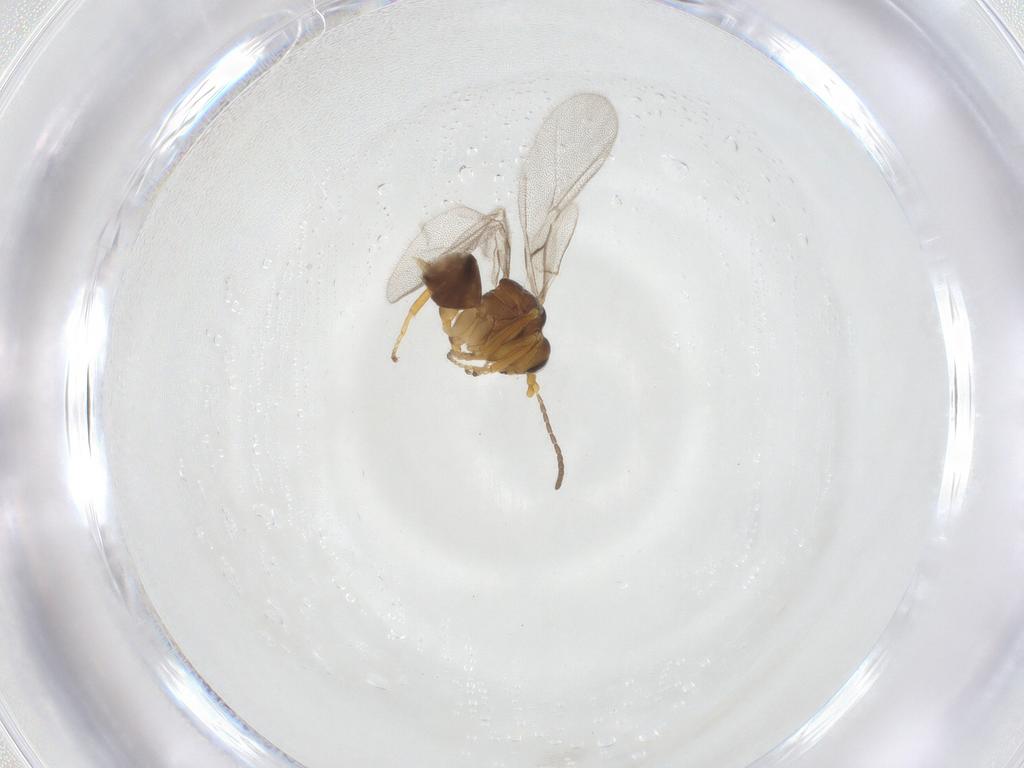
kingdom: Animalia
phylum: Arthropoda
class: Insecta
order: Hymenoptera
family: Cynipidae
